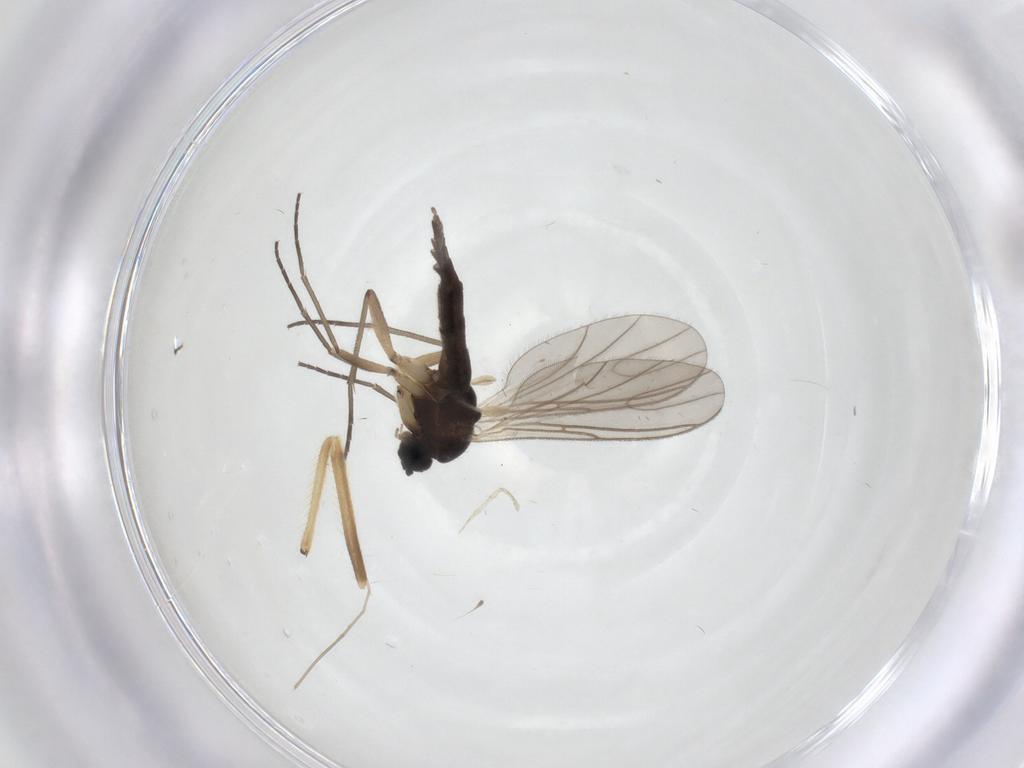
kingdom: Animalia
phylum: Arthropoda
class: Insecta
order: Diptera
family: Sciaridae
